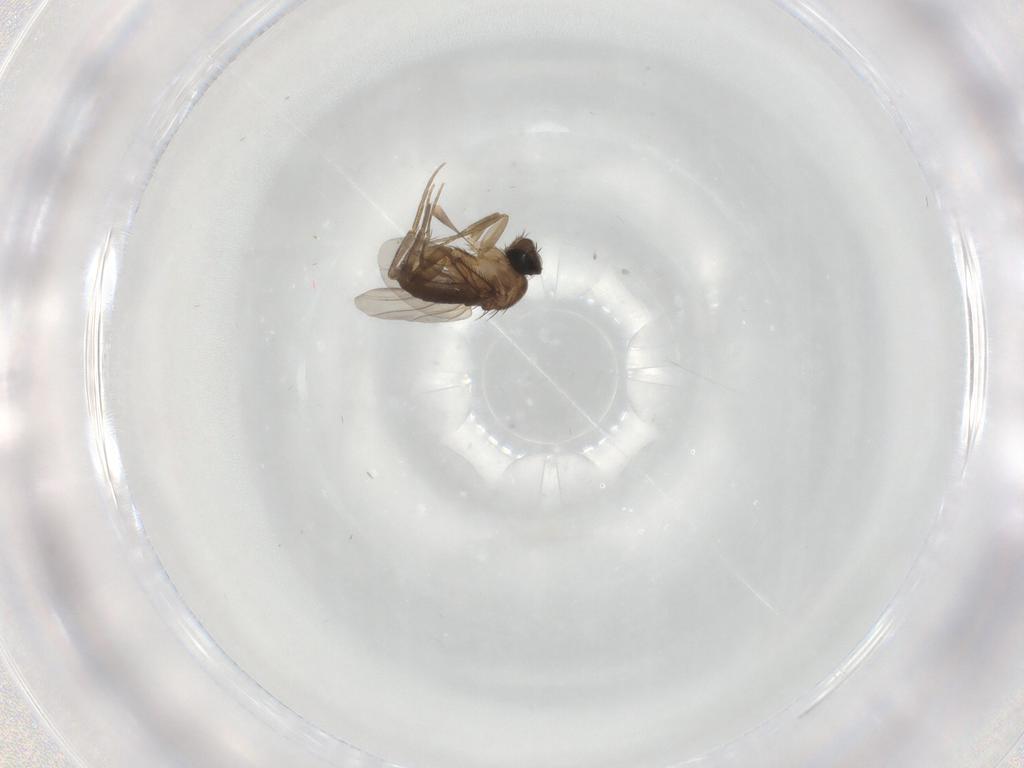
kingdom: Animalia
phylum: Arthropoda
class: Insecta
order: Diptera
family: Phoridae
